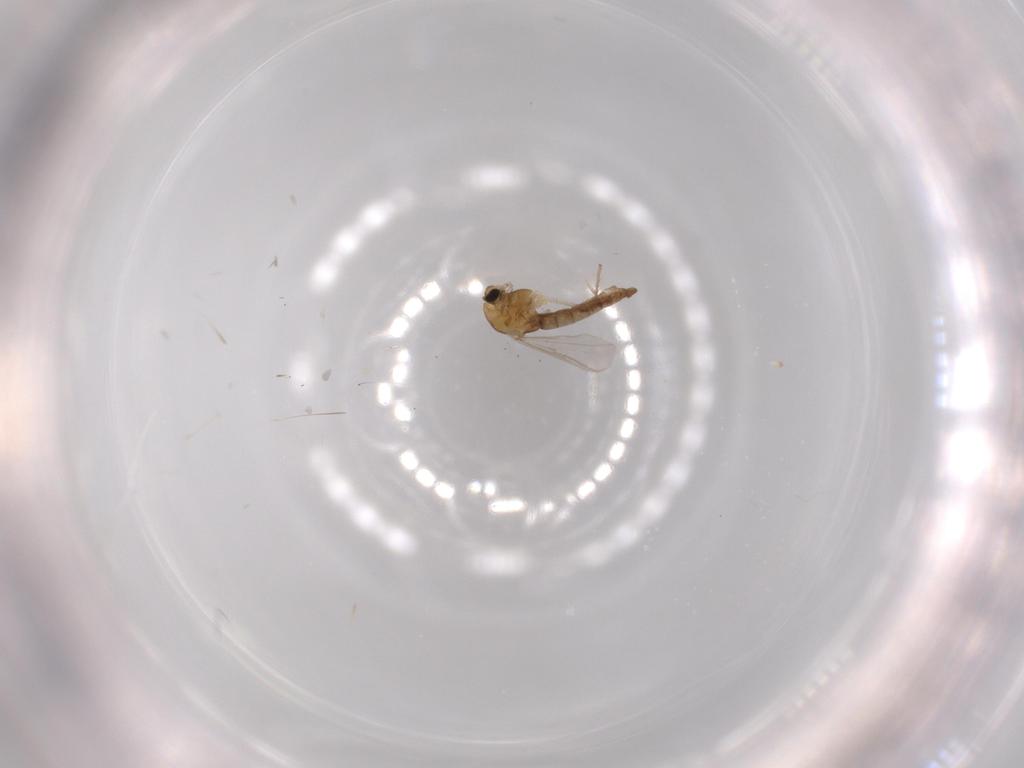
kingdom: Animalia
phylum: Arthropoda
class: Insecta
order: Diptera
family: Chironomidae
